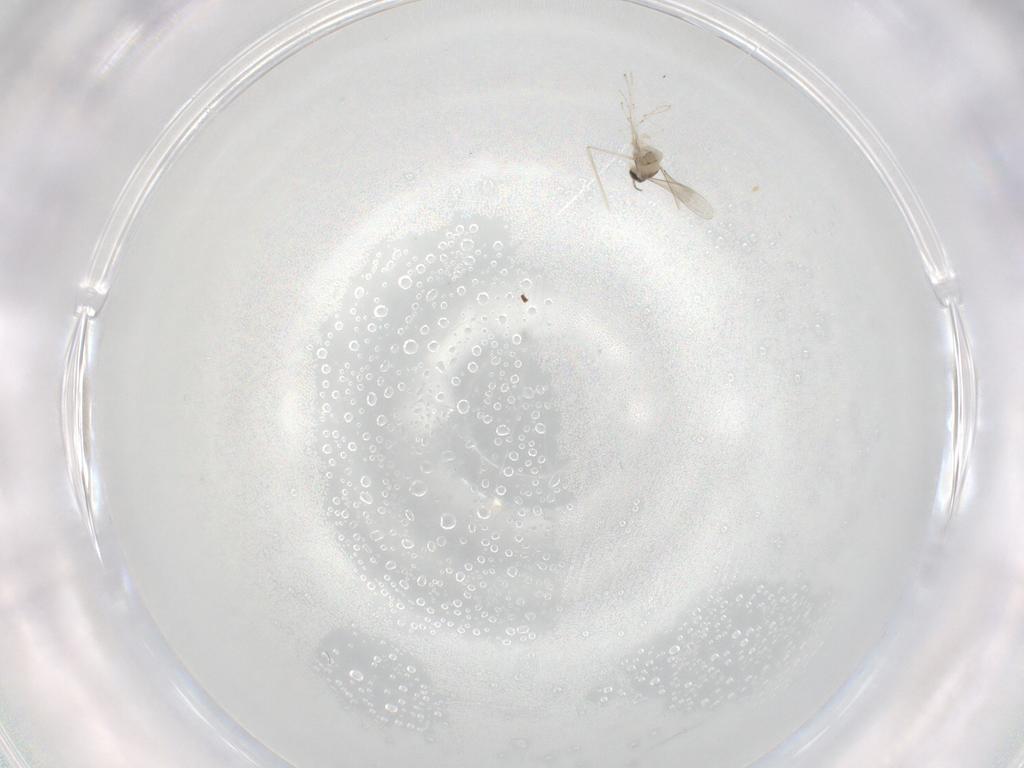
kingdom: Animalia
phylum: Arthropoda
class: Insecta
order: Diptera
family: Cecidomyiidae
